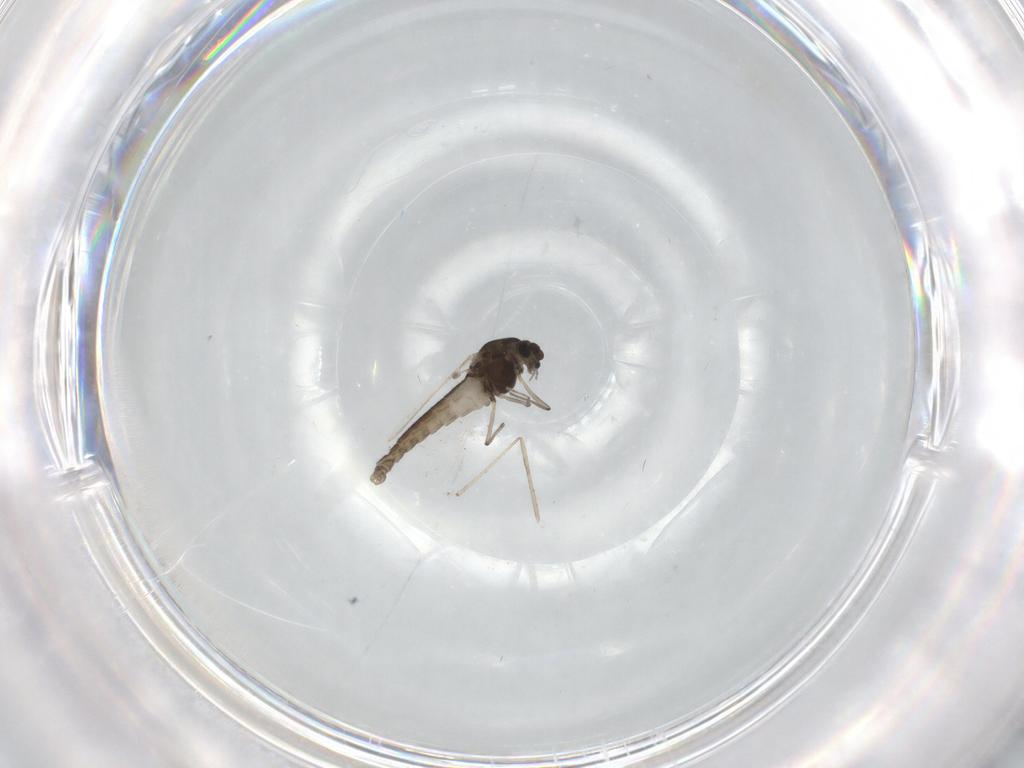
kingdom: Animalia
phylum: Arthropoda
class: Insecta
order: Diptera
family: Chironomidae
